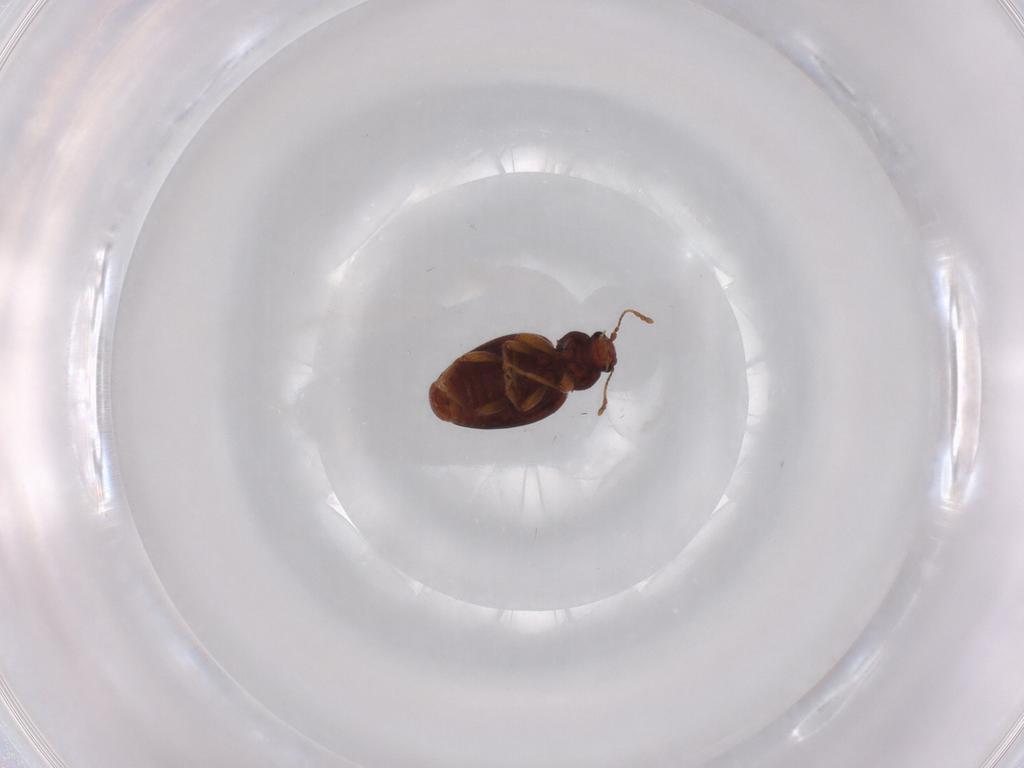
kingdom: Animalia
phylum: Arthropoda
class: Insecta
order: Coleoptera
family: Latridiidae
